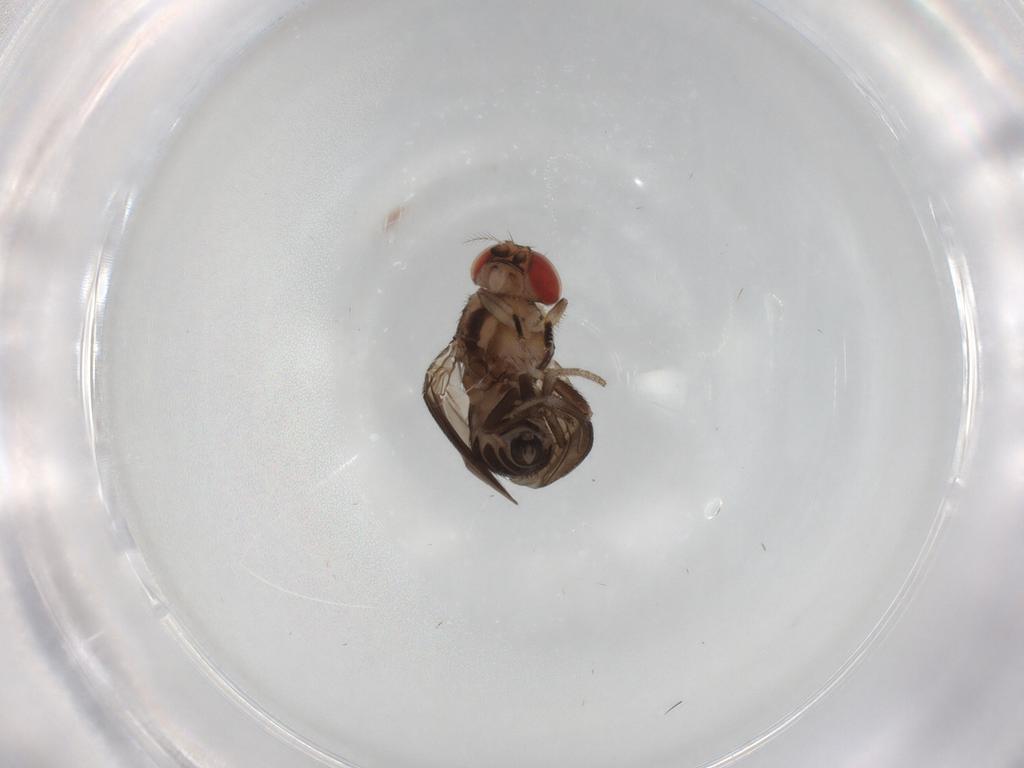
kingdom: Animalia
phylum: Arthropoda
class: Insecta
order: Diptera
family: Drosophilidae
